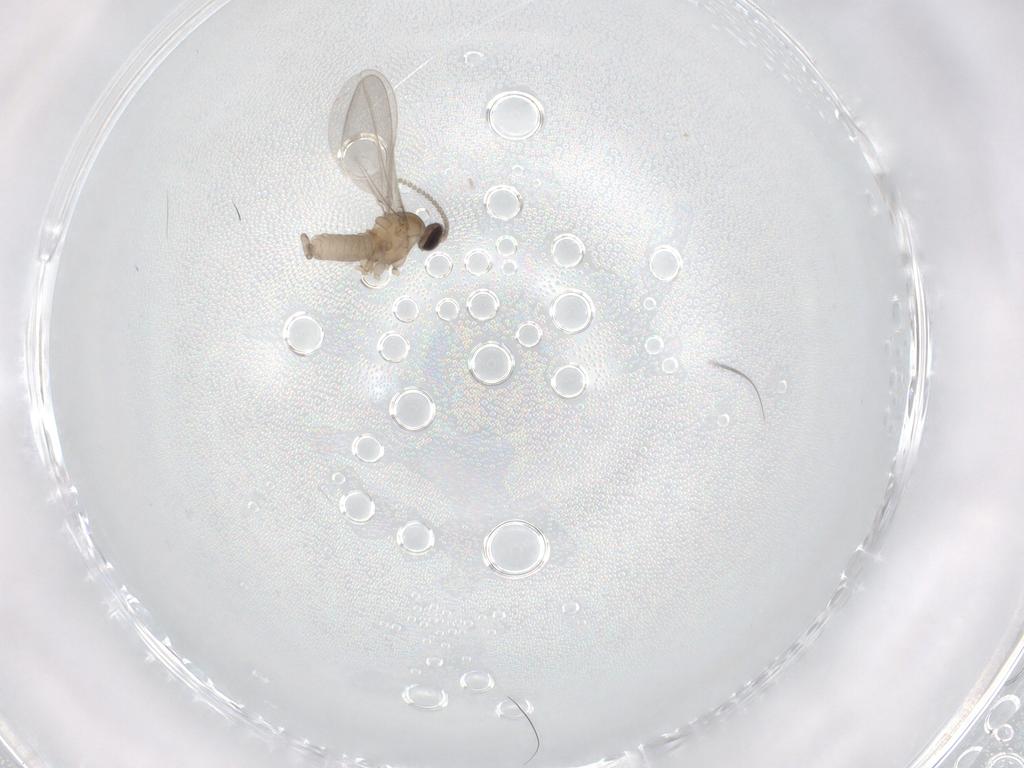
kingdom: Animalia
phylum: Arthropoda
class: Insecta
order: Diptera
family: Cecidomyiidae
